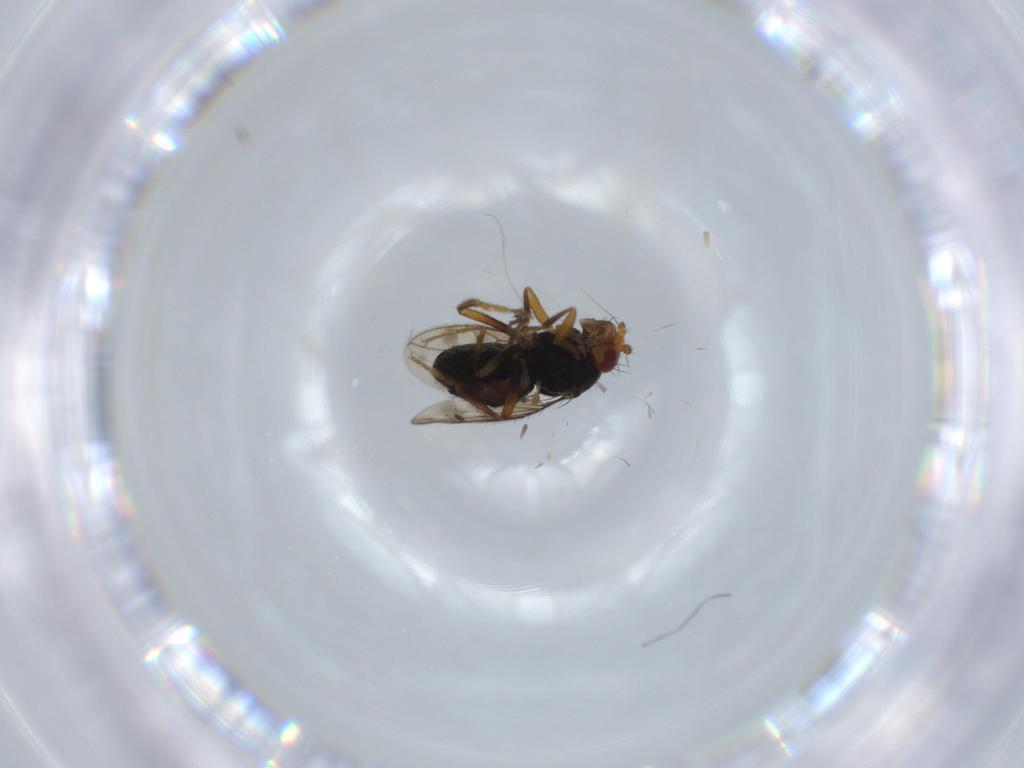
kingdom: Animalia
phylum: Arthropoda
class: Insecta
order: Diptera
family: Sphaeroceridae
